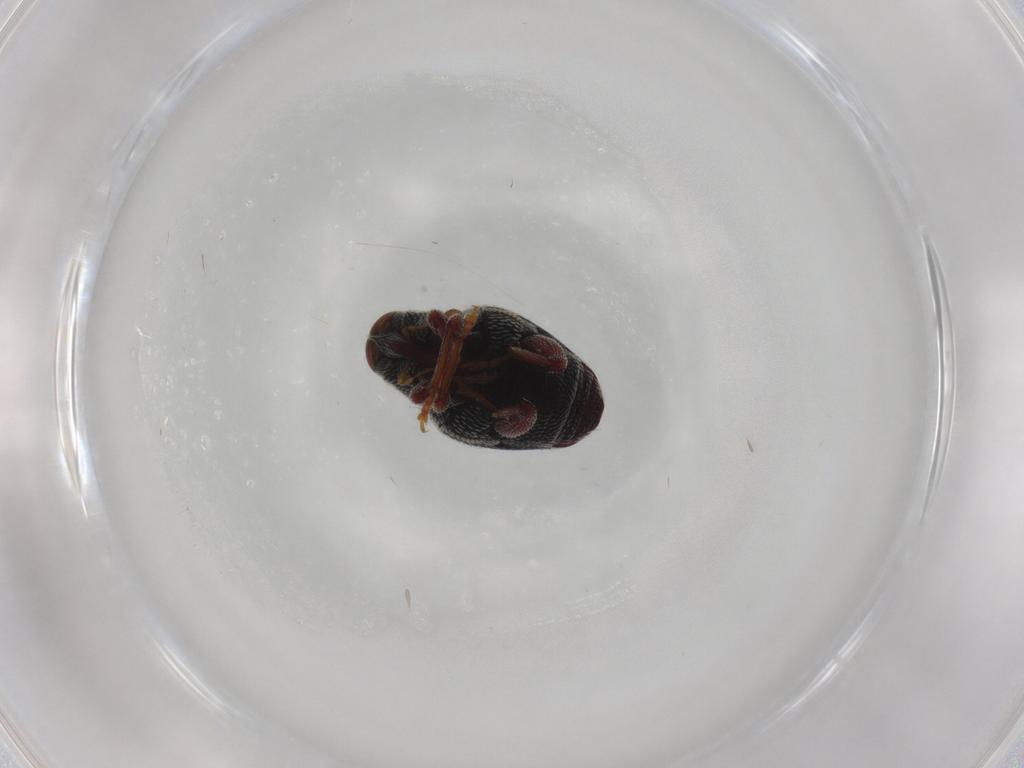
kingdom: Animalia
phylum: Arthropoda
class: Insecta
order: Coleoptera
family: Curculionidae
